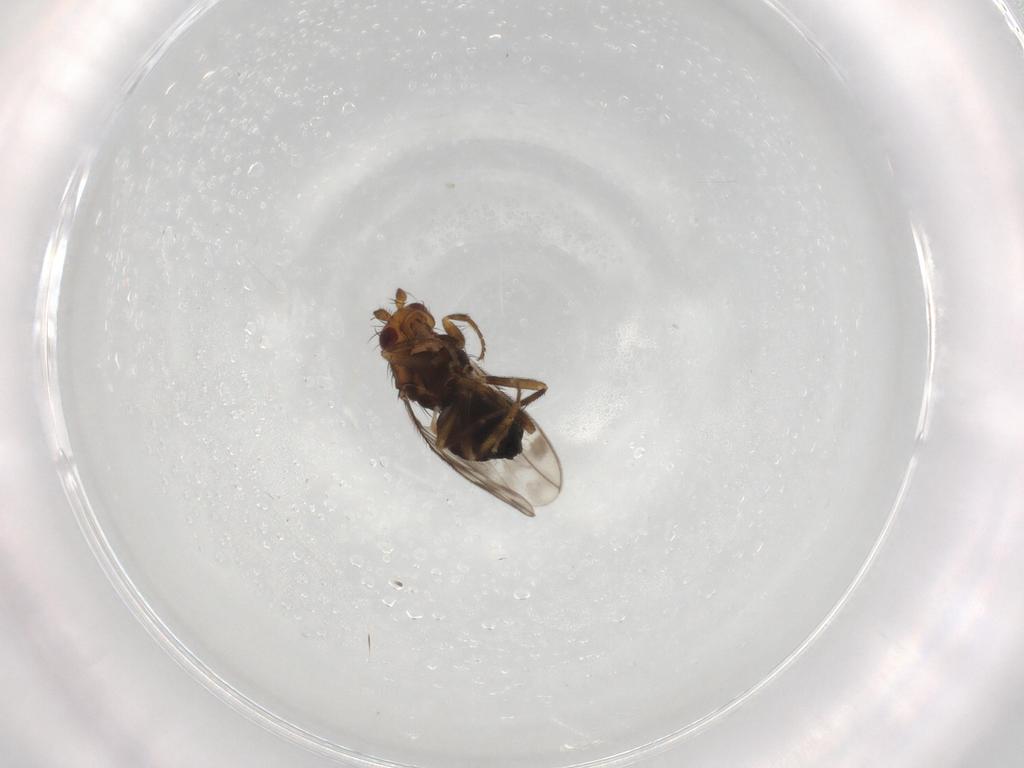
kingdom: Animalia
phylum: Arthropoda
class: Insecta
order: Diptera
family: Sphaeroceridae
